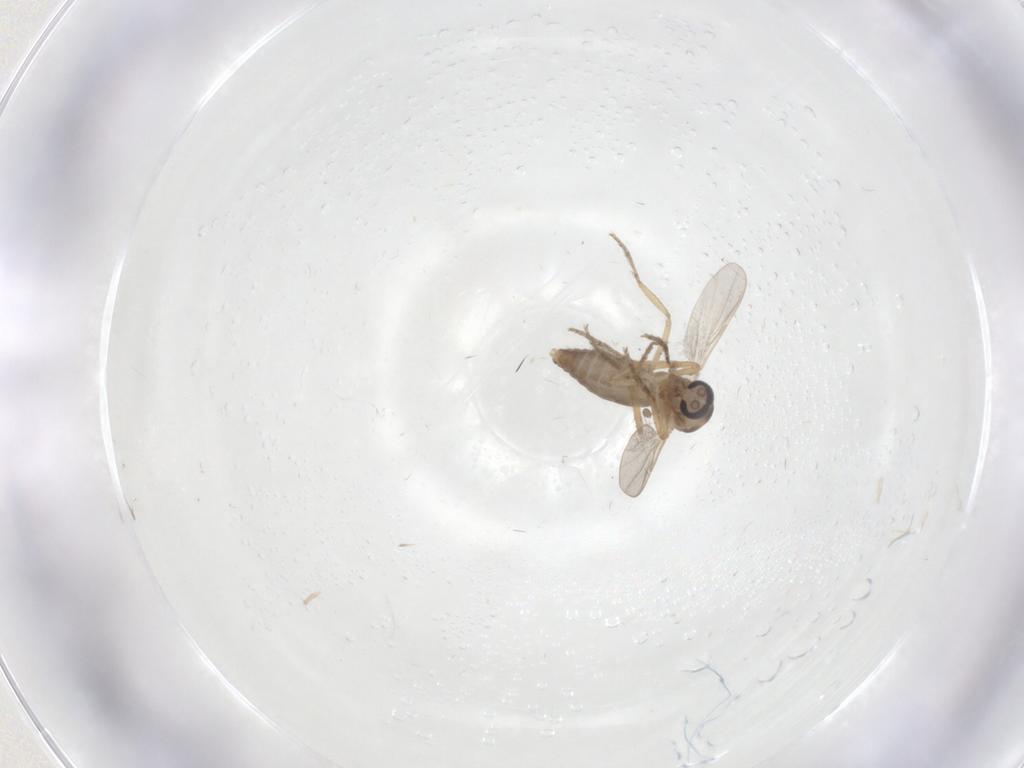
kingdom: Animalia
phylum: Arthropoda
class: Insecta
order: Diptera
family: Ceratopogonidae
